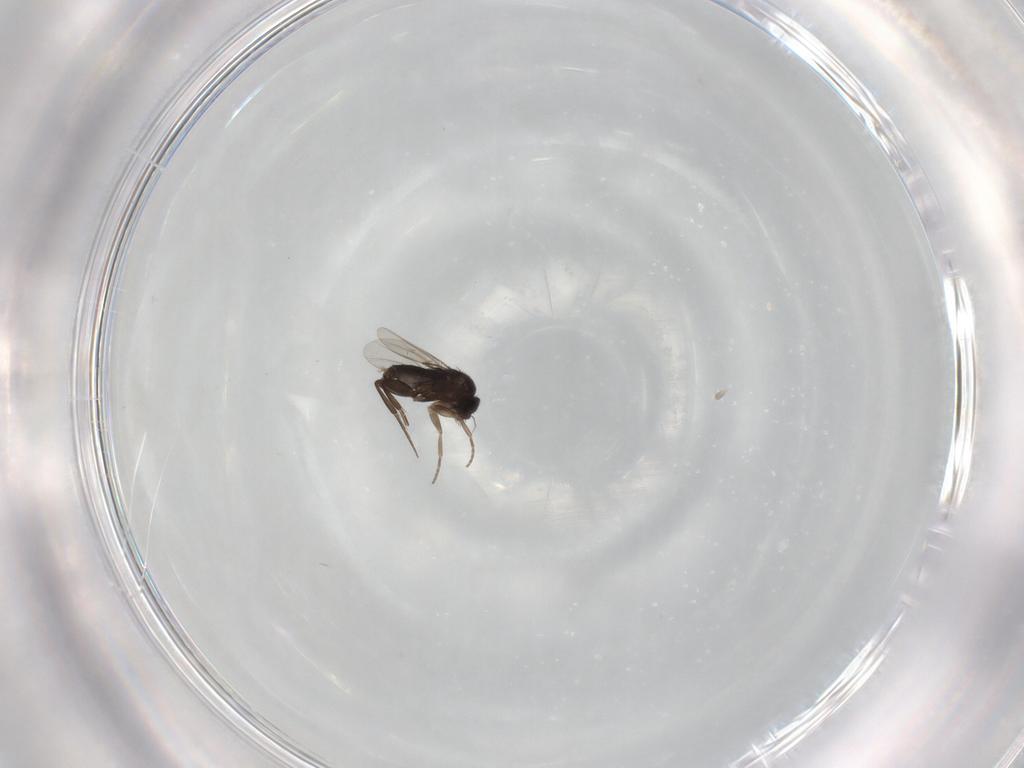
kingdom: Animalia
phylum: Arthropoda
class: Insecta
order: Diptera
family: Phoridae
